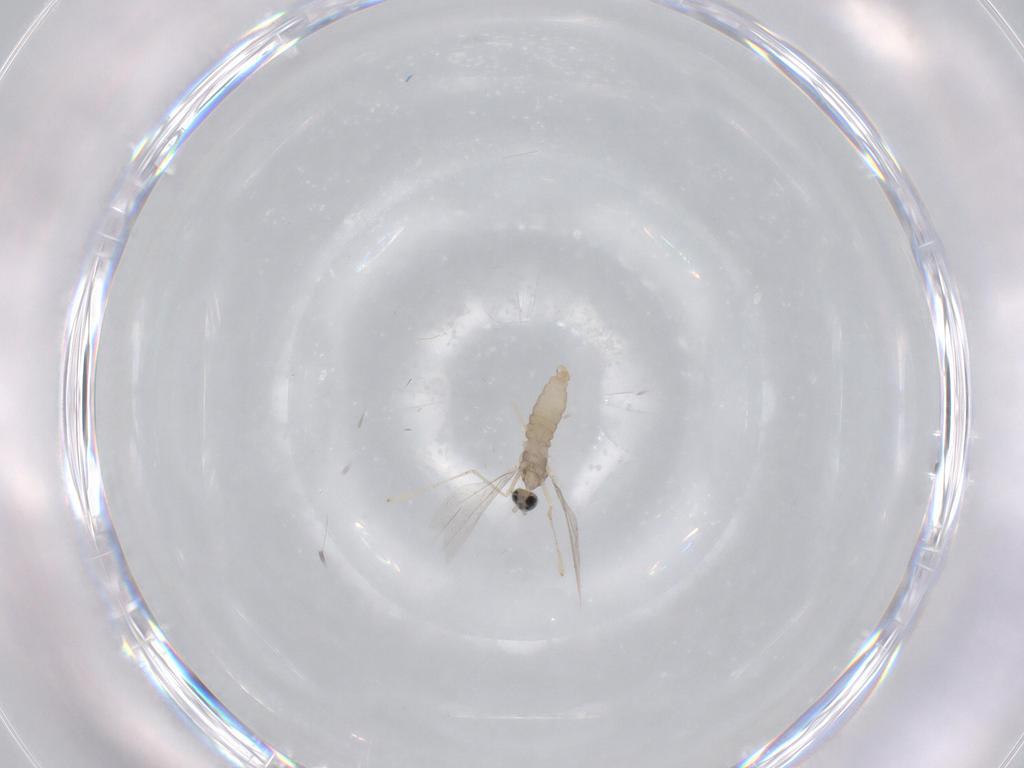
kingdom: Animalia
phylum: Arthropoda
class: Insecta
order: Diptera
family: Cecidomyiidae
